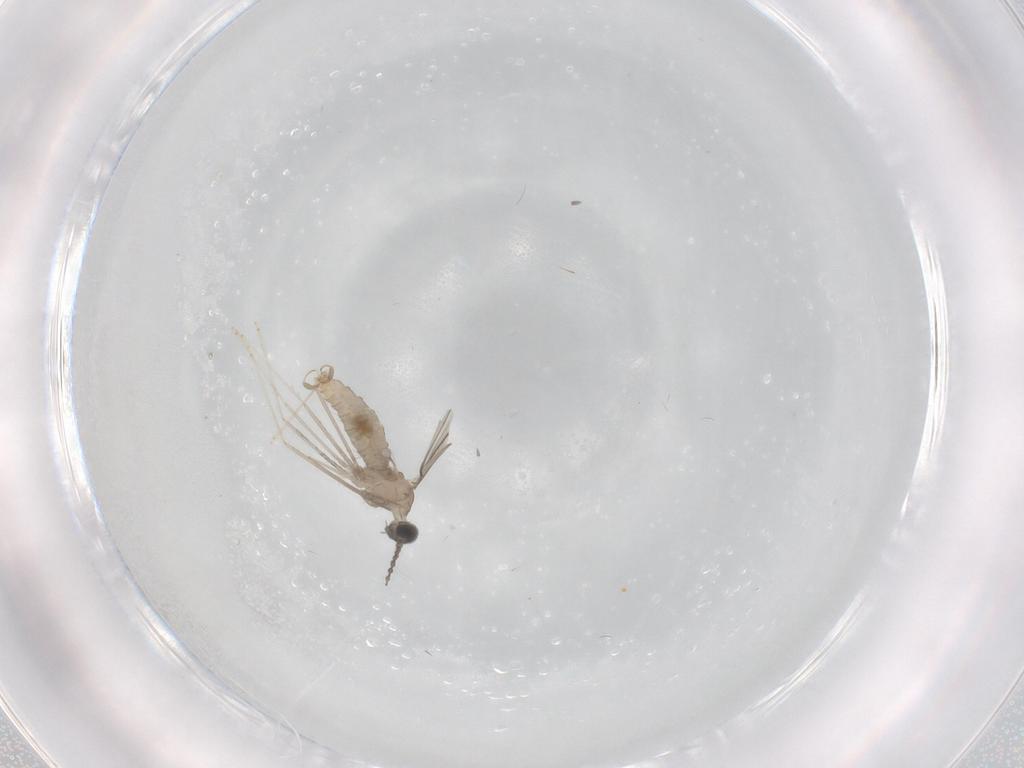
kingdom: Animalia
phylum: Arthropoda
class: Insecta
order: Diptera
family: Cecidomyiidae
